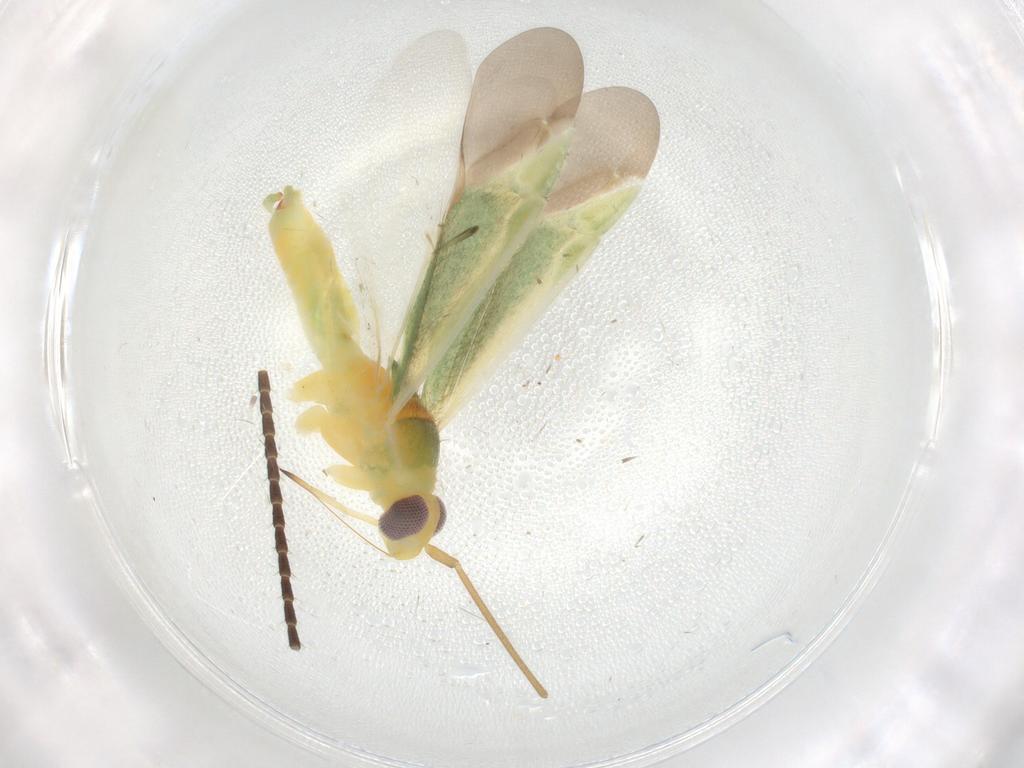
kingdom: Animalia
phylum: Arthropoda
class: Insecta
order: Hemiptera
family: Miridae
